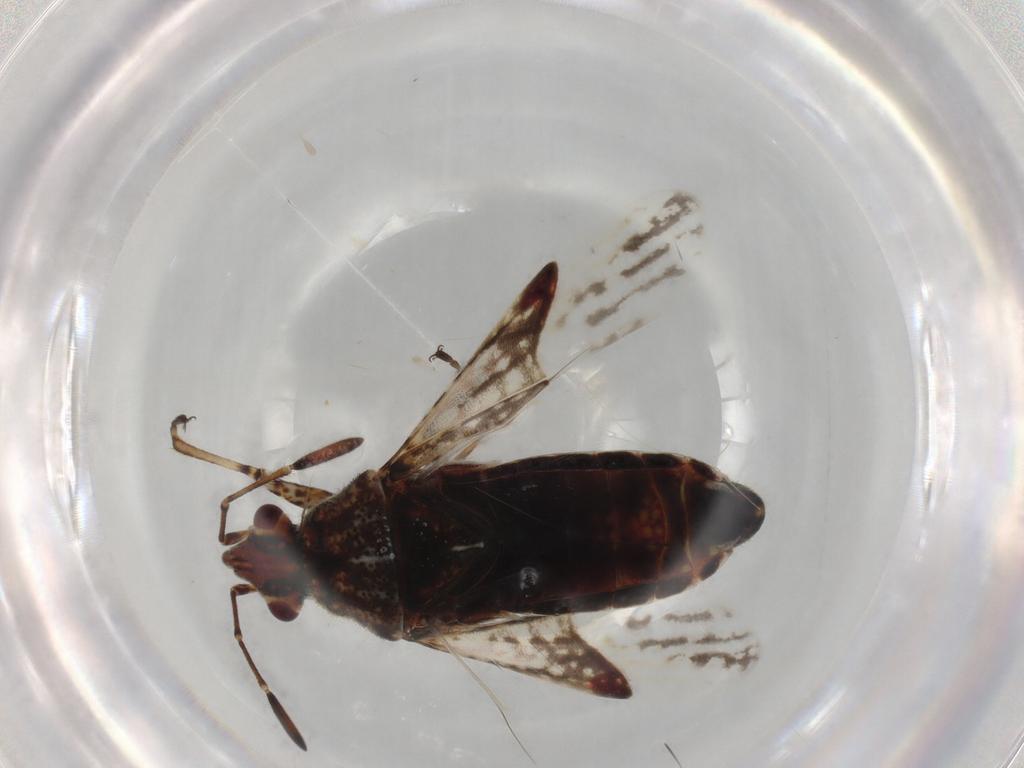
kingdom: Animalia
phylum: Arthropoda
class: Insecta
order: Hemiptera
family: Lygaeidae
